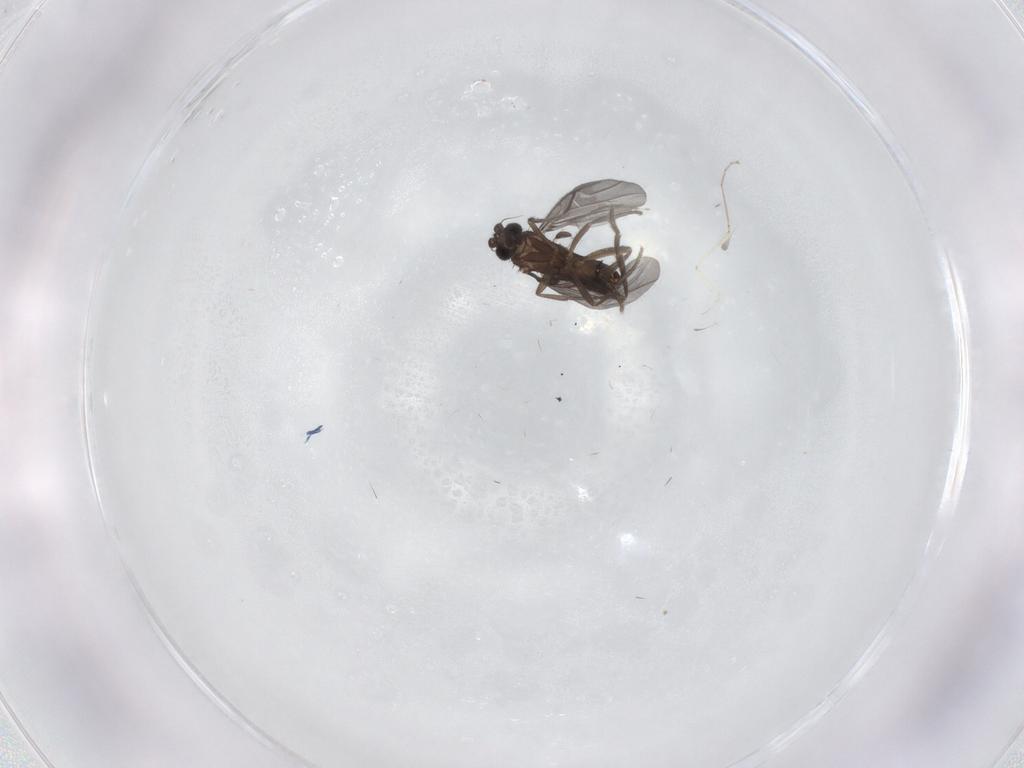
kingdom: Animalia
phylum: Arthropoda
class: Insecta
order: Diptera
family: Phoridae
